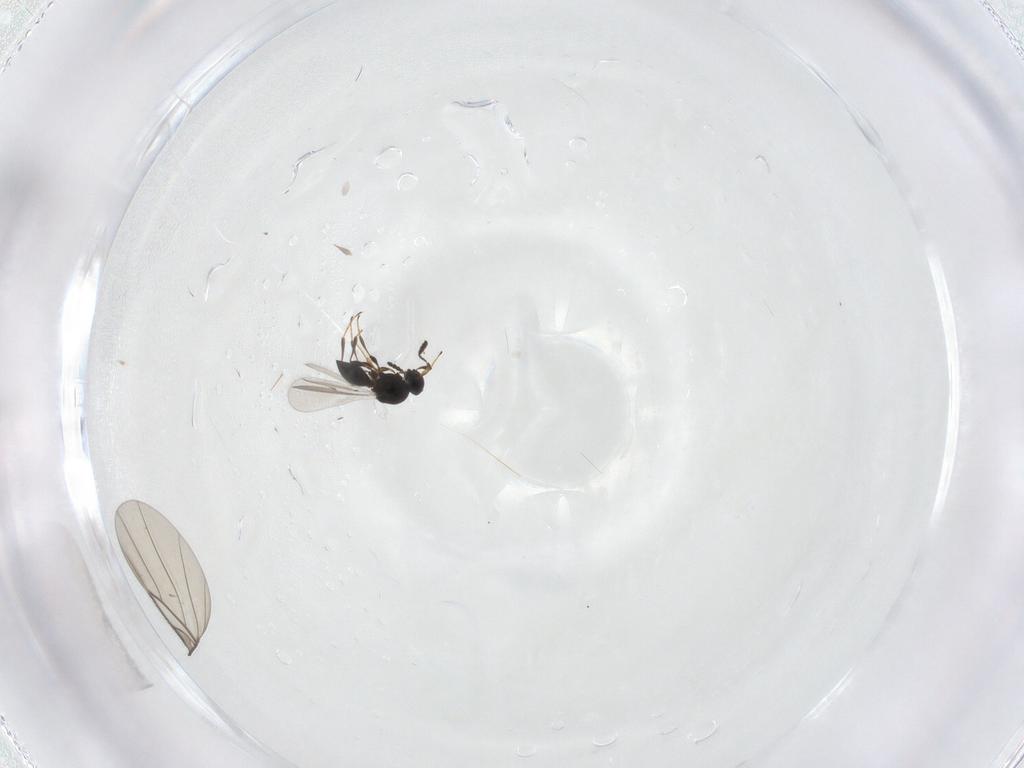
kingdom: Animalia
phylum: Arthropoda
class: Insecta
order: Hymenoptera
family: Platygastridae
